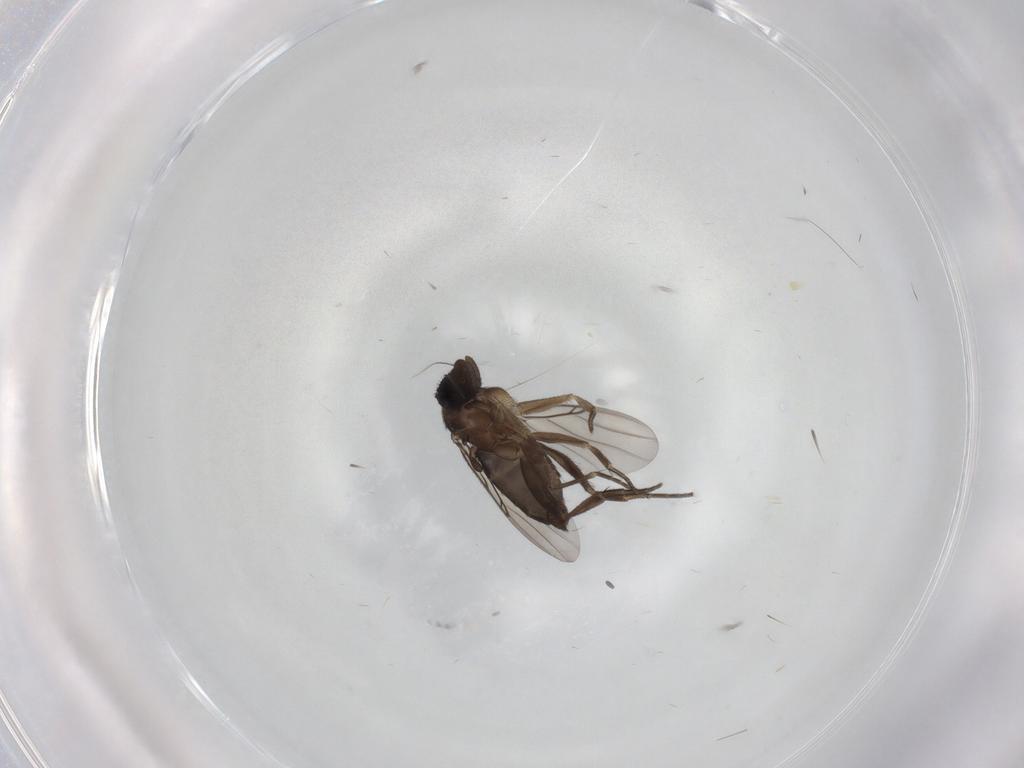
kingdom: Animalia
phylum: Arthropoda
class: Insecta
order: Diptera
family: Phoridae
